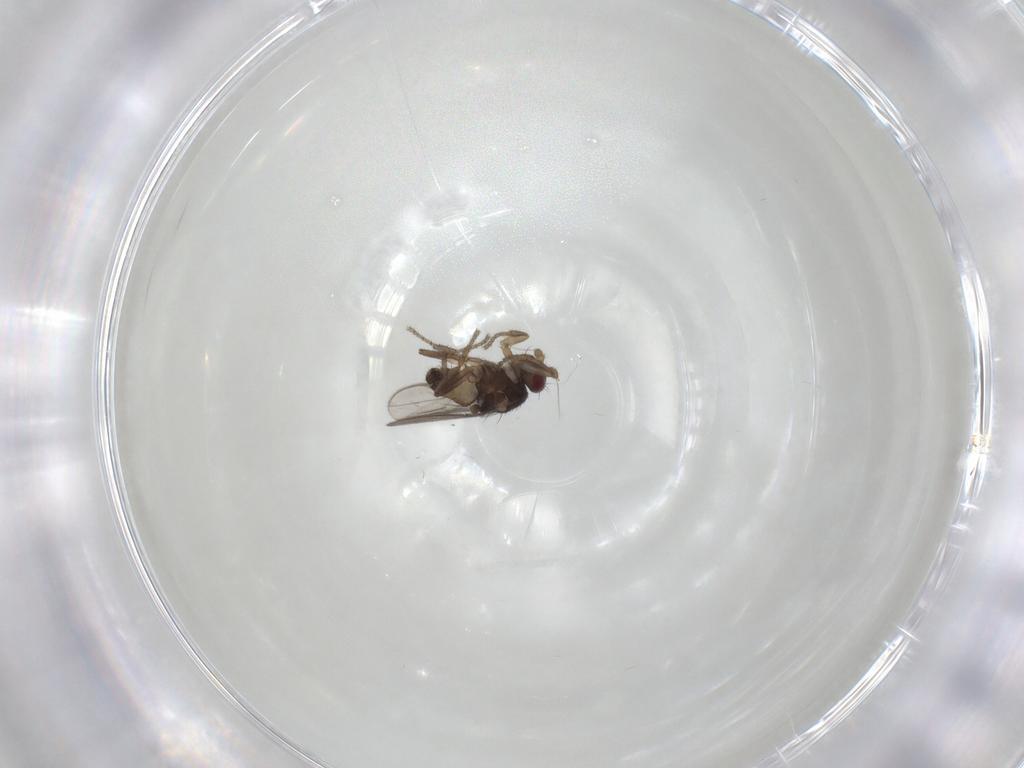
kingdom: Animalia
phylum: Arthropoda
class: Insecta
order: Diptera
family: Sphaeroceridae
